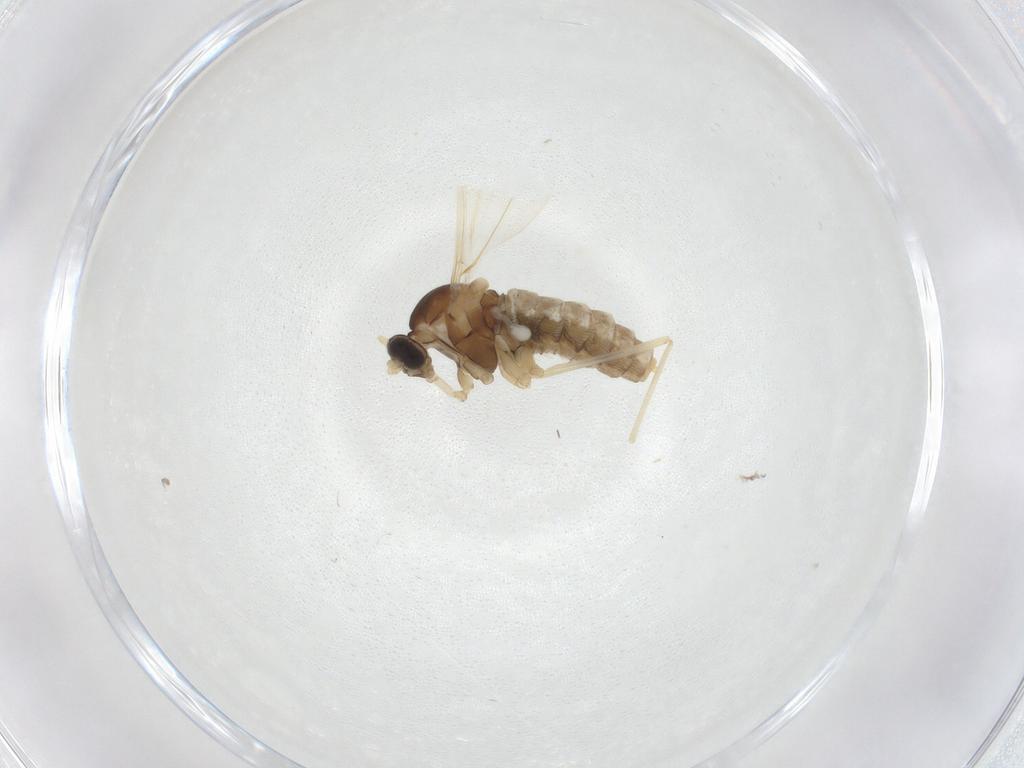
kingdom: Animalia
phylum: Arthropoda
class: Insecta
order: Diptera
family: Cecidomyiidae
